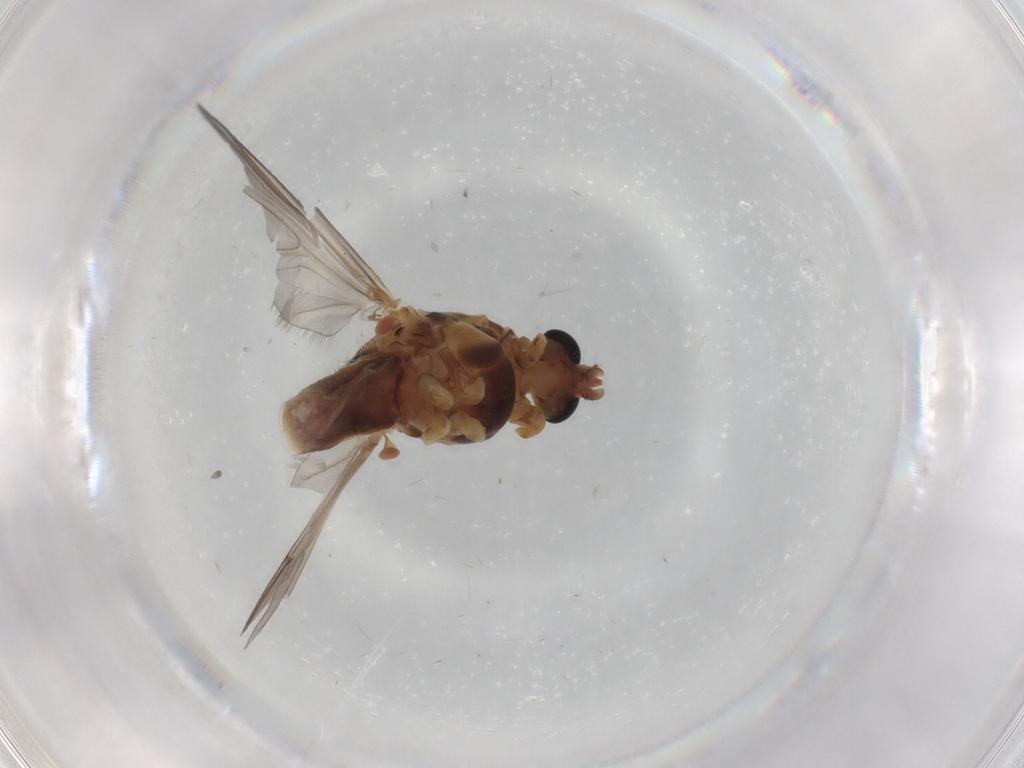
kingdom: Animalia
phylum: Arthropoda
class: Insecta
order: Diptera
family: Chironomidae
